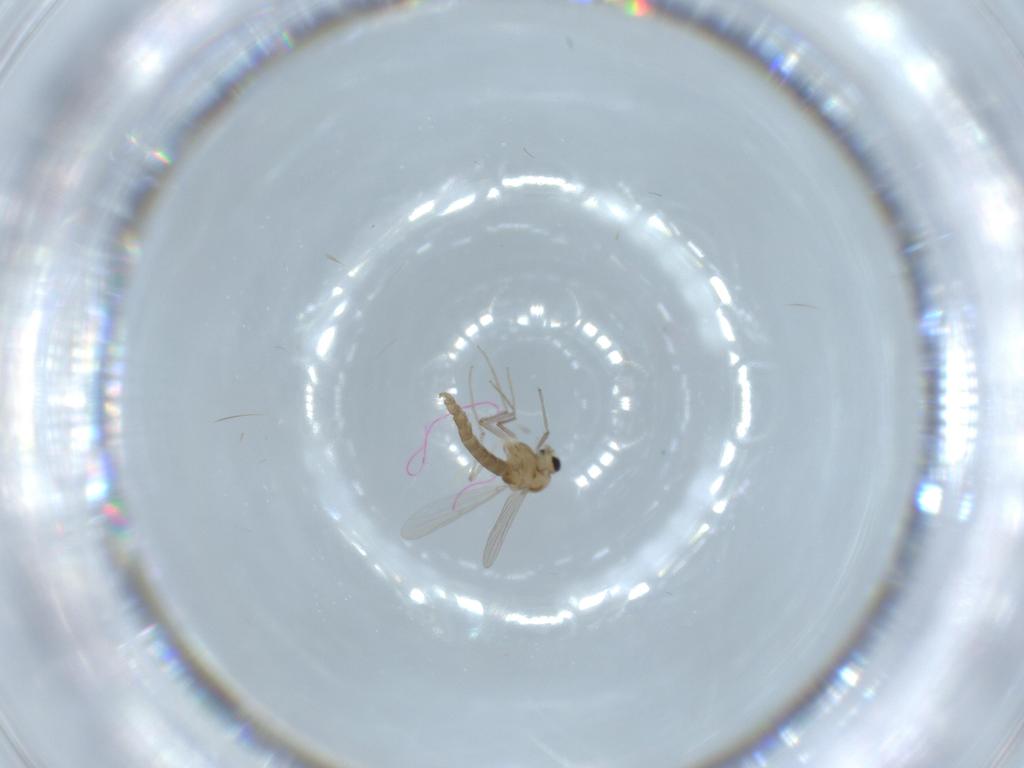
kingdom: Animalia
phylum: Arthropoda
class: Insecta
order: Diptera
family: Chironomidae
